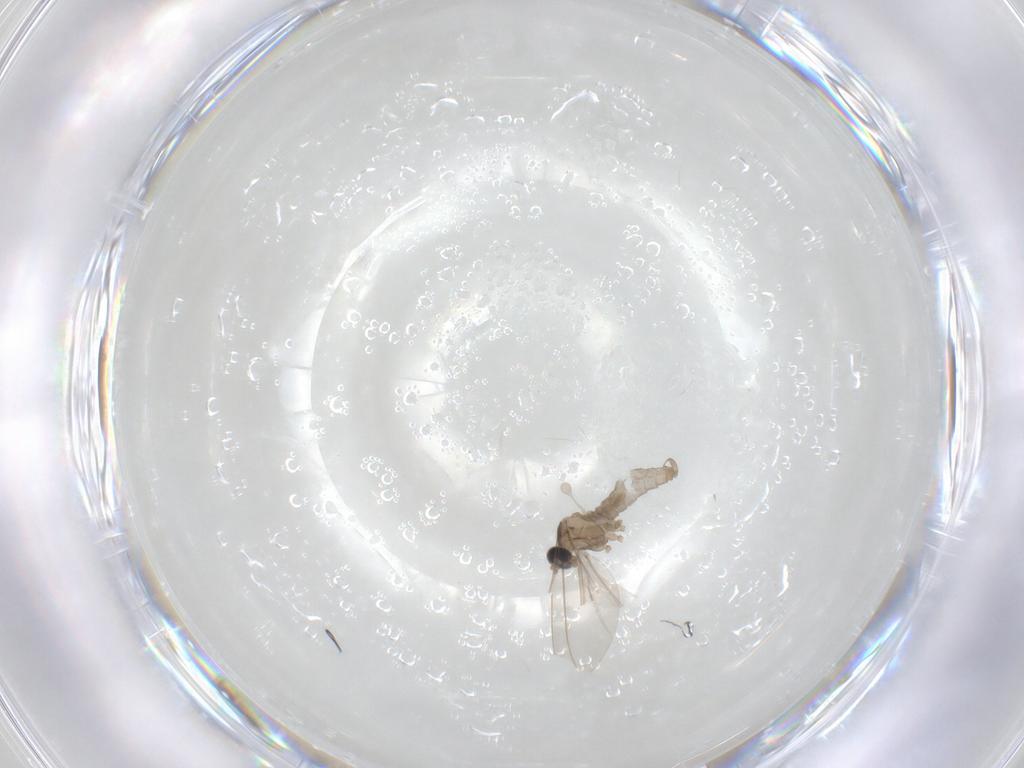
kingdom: Animalia
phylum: Arthropoda
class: Insecta
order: Diptera
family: Cecidomyiidae
